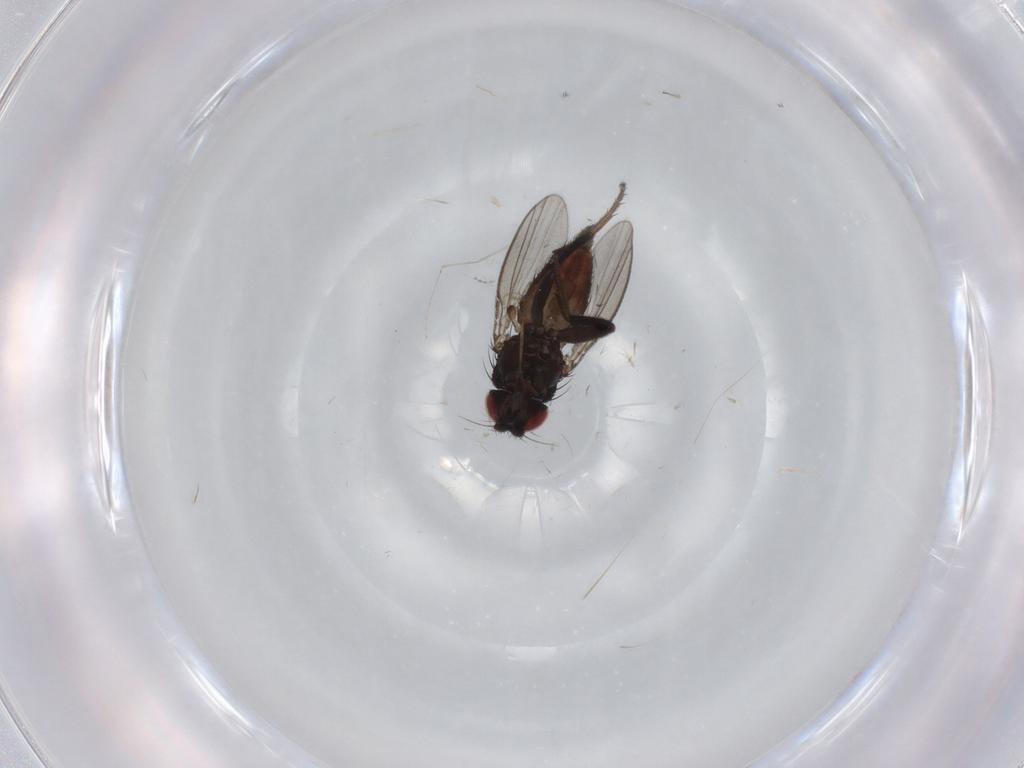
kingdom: Animalia
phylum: Arthropoda
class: Insecta
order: Diptera
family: Milichiidae
